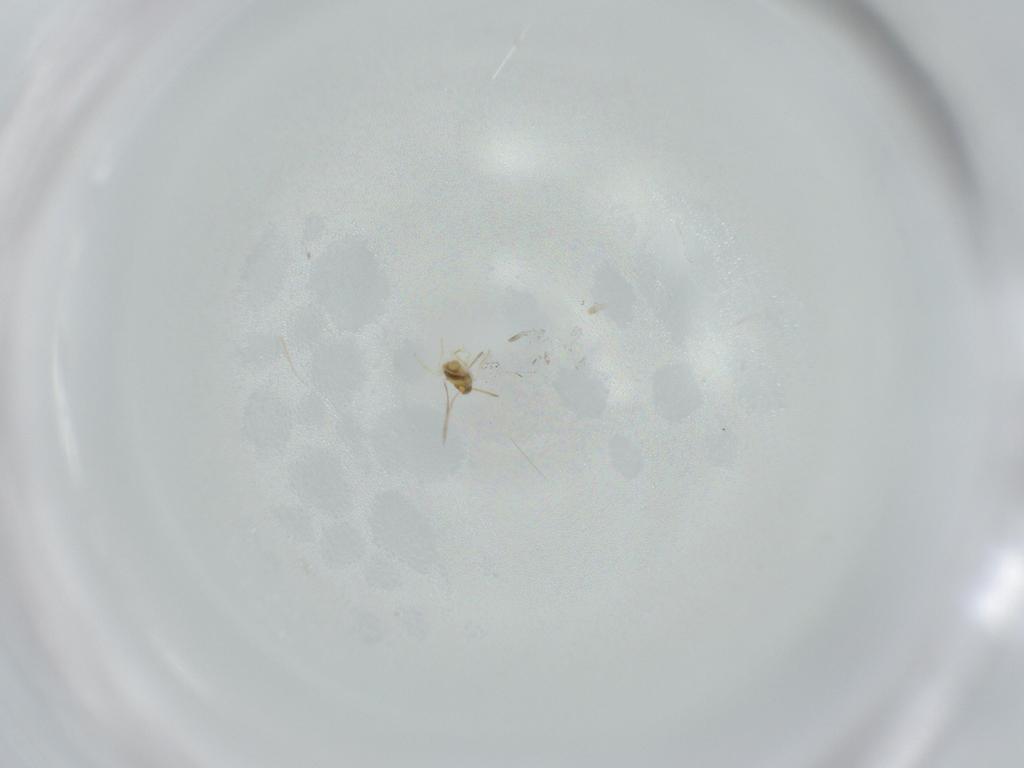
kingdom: Animalia
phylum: Arthropoda
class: Insecta
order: Hymenoptera
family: Aphelinidae
